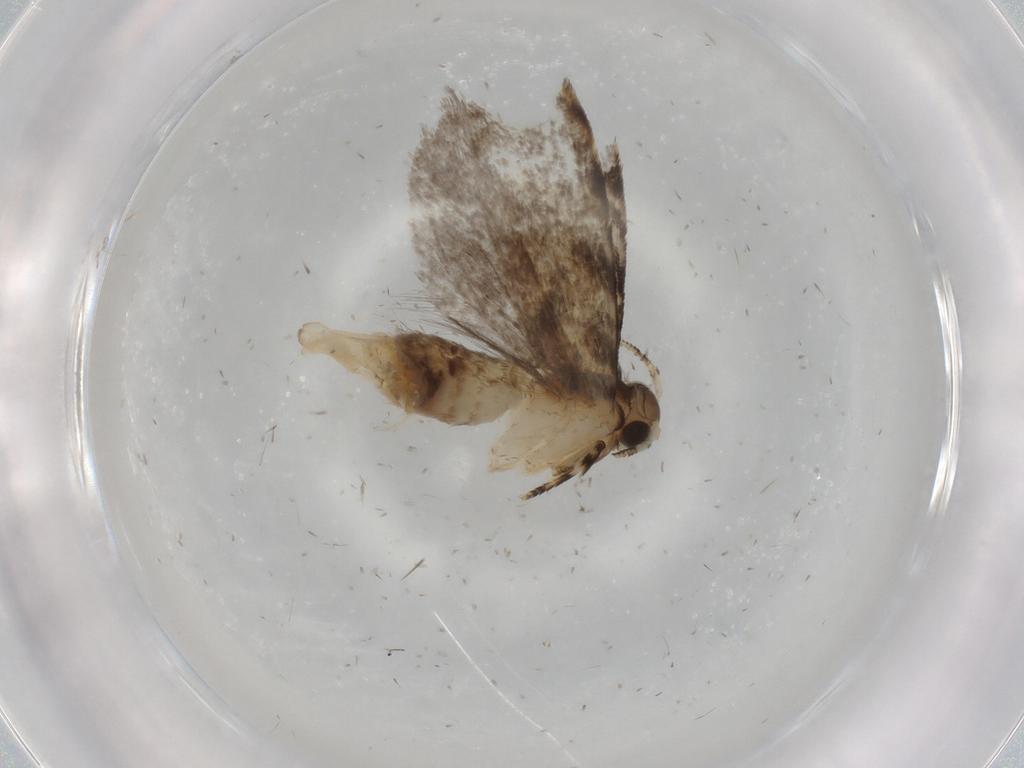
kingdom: Animalia
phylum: Arthropoda
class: Insecta
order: Lepidoptera
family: Tineidae
